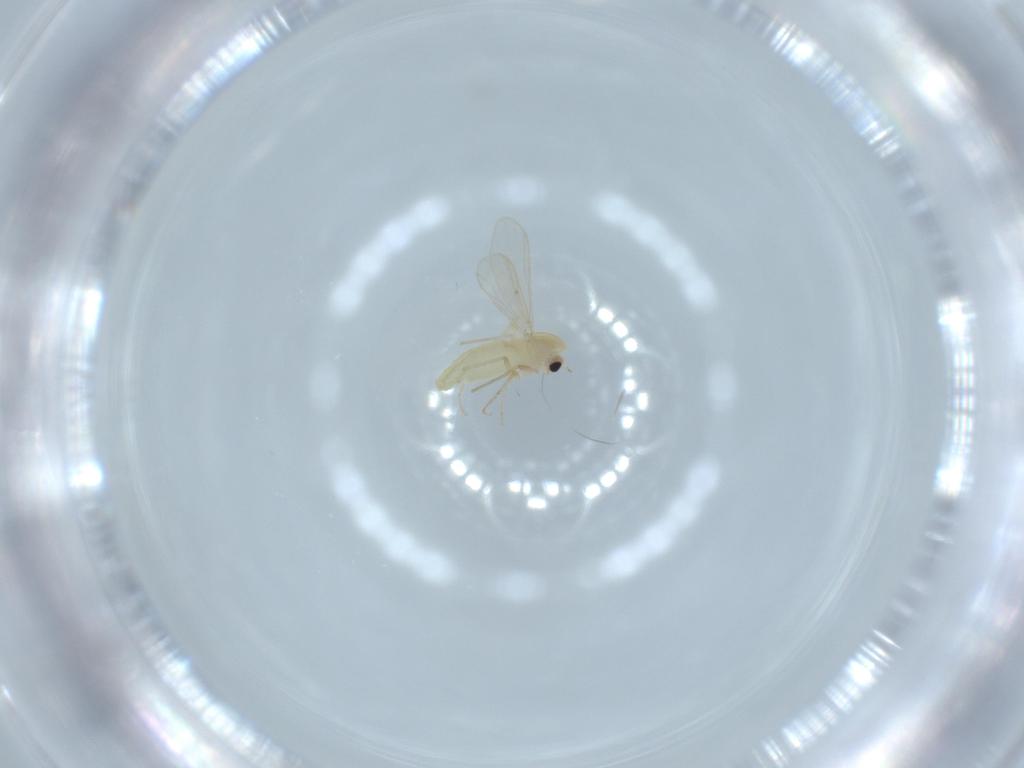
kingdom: Animalia
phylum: Arthropoda
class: Insecta
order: Diptera
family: Chironomidae
